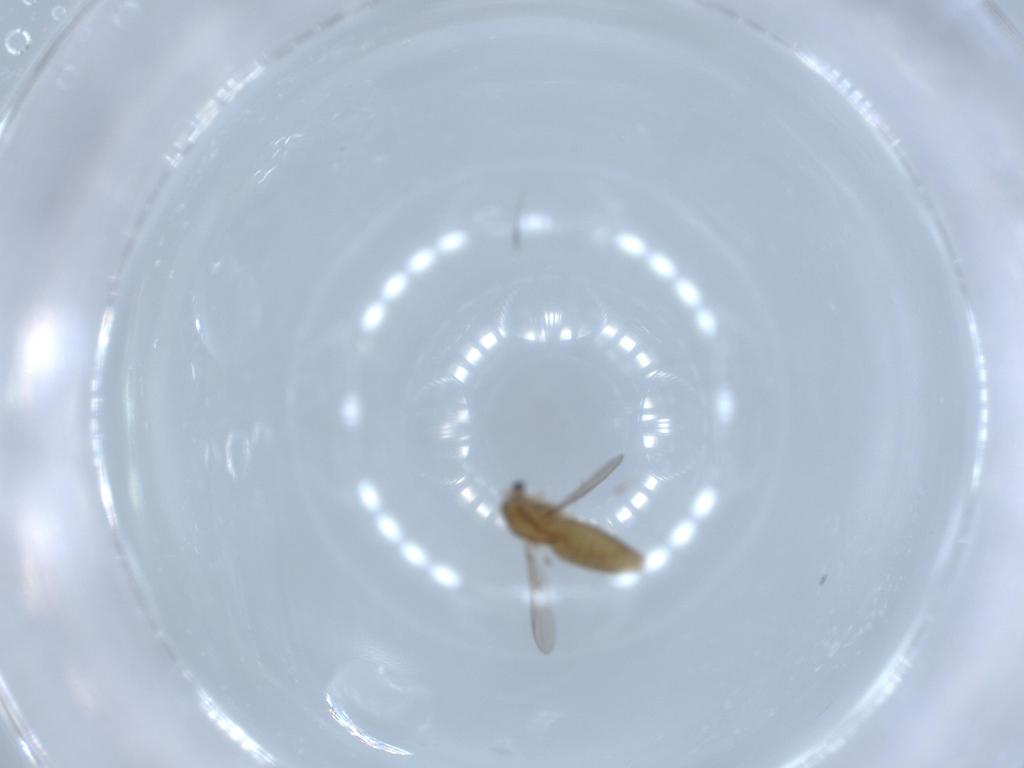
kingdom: Animalia
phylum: Arthropoda
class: Insecta
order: Diptera
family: Chironomidae
